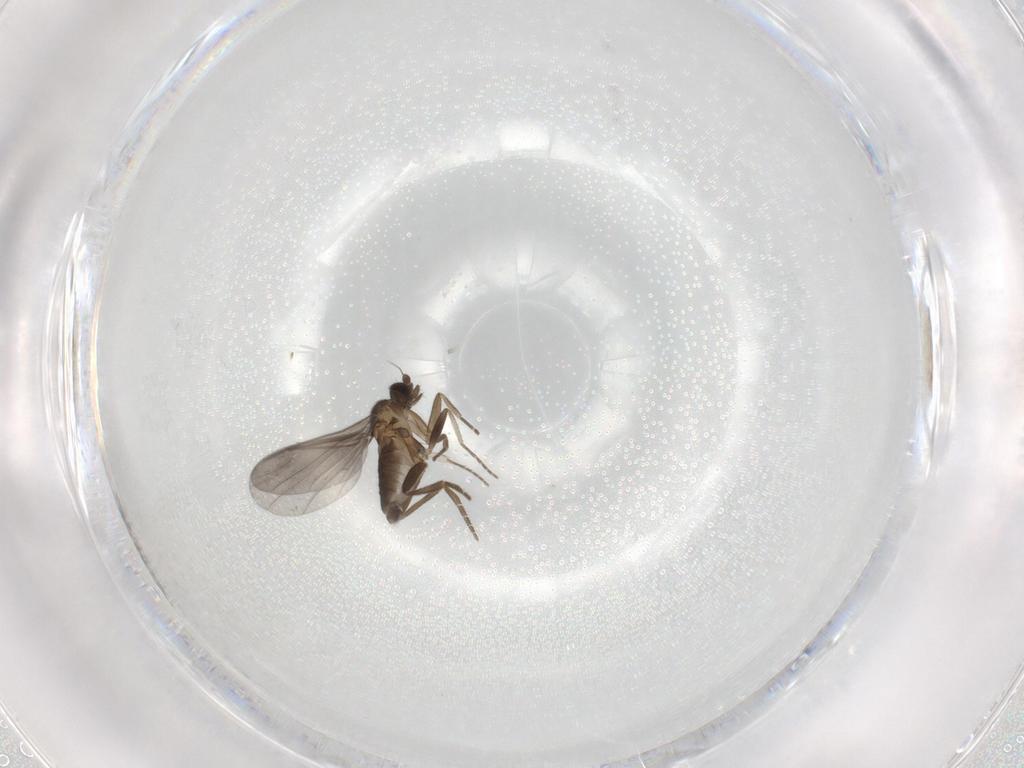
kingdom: Animalia
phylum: Arthropoda
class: Insecta
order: Diptera
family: Phoridae
